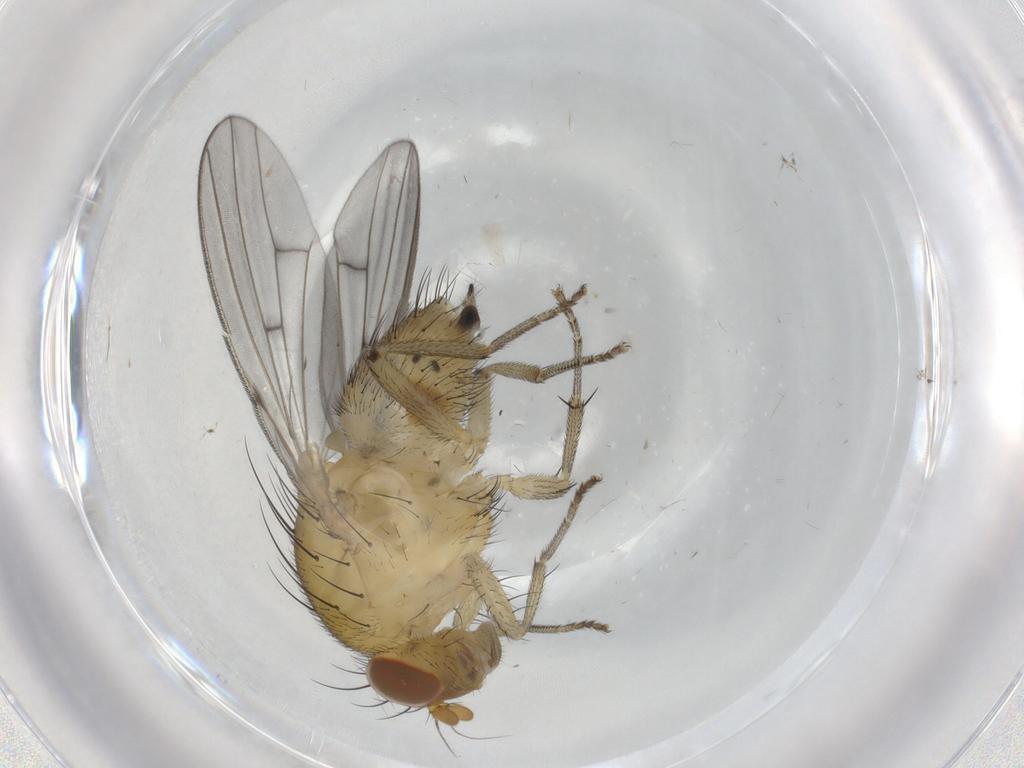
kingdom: Animalia
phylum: Arthropoda
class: Insecta
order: Diptera
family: Lauxaniidae
